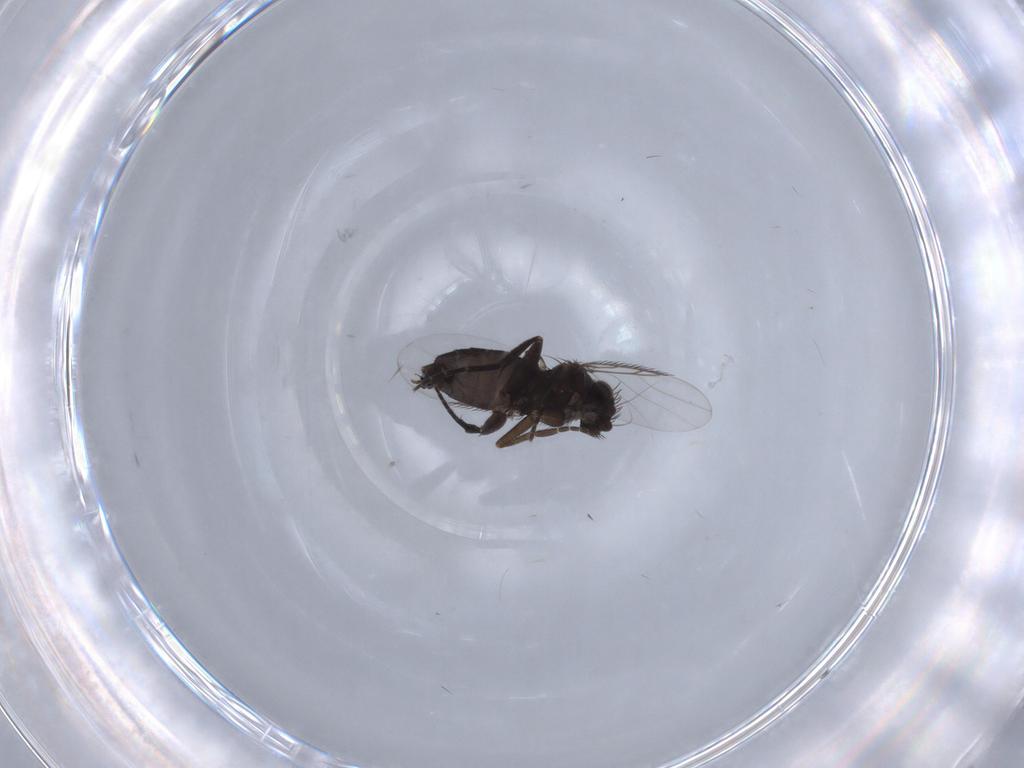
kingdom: Animalia
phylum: Arthropoda
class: Insecta
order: Diptera
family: Phoridae
